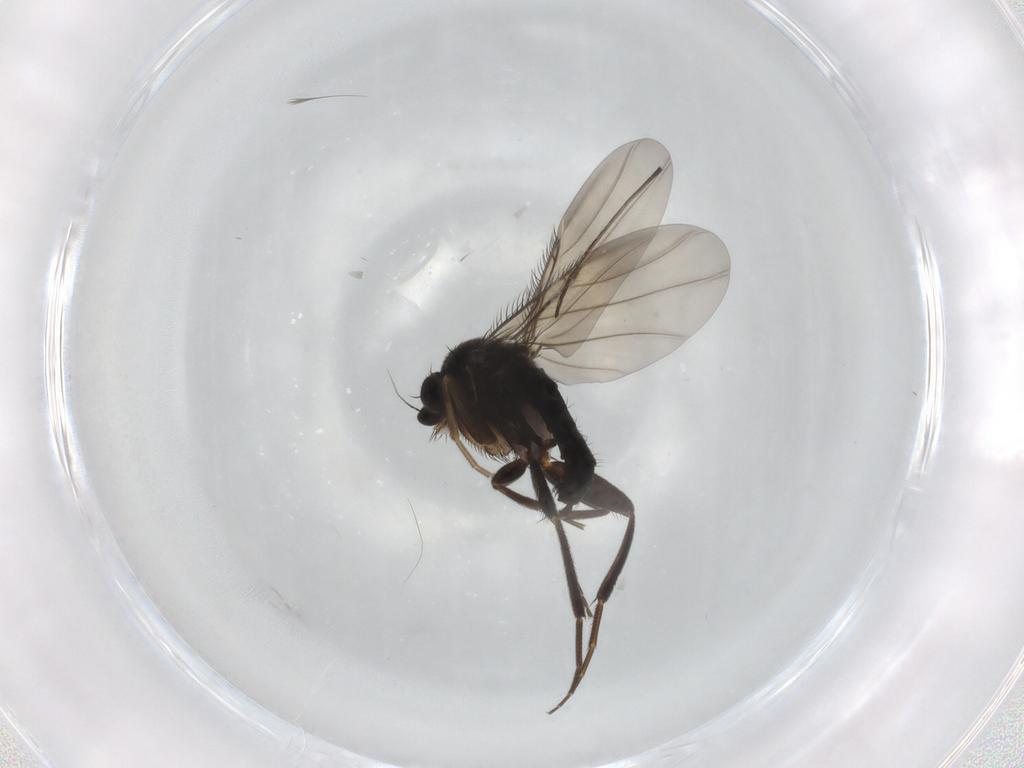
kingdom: Animalia
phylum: Arthropoda
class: Insecta
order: Diptera
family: Phoridae
